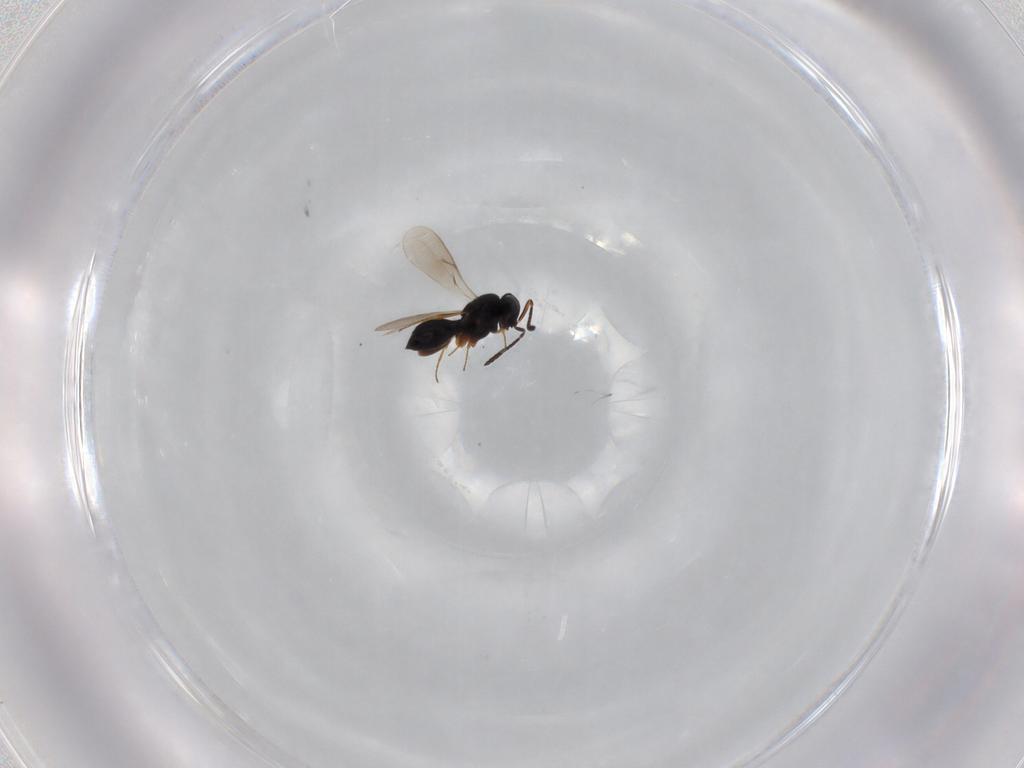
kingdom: Animalia
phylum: Arthropoda
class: Insecta
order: Hymenoptera
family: Scelionidae
